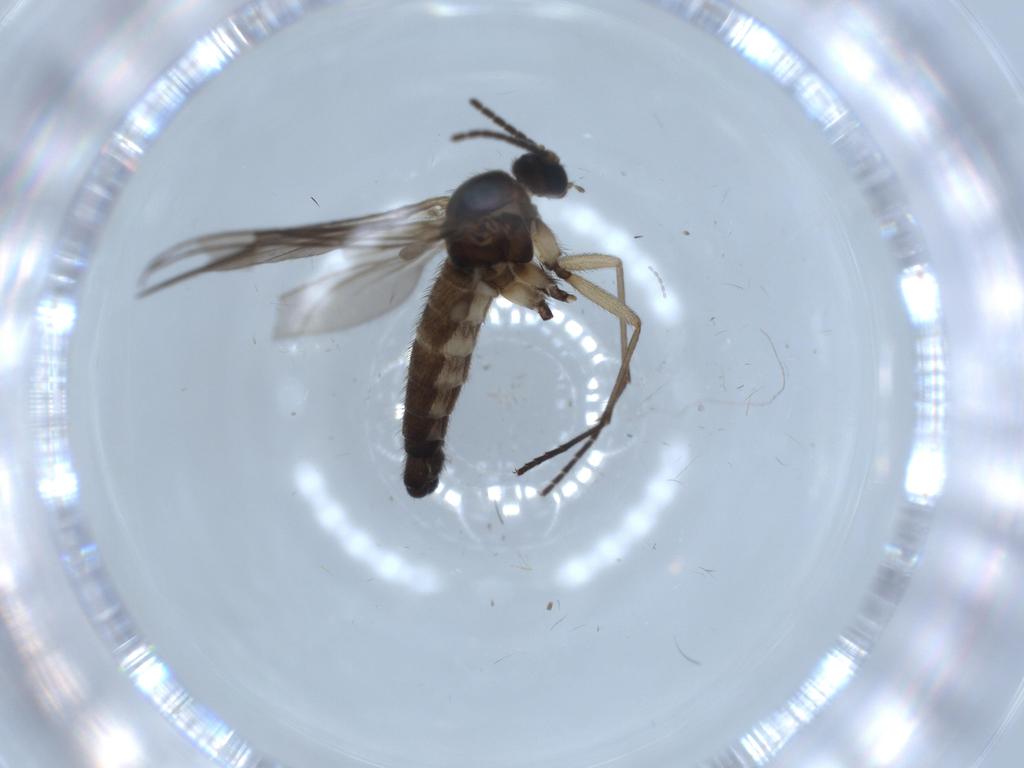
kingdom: Animalia
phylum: Arthropoda
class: Insecta
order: Diptera
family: Sciaridae
